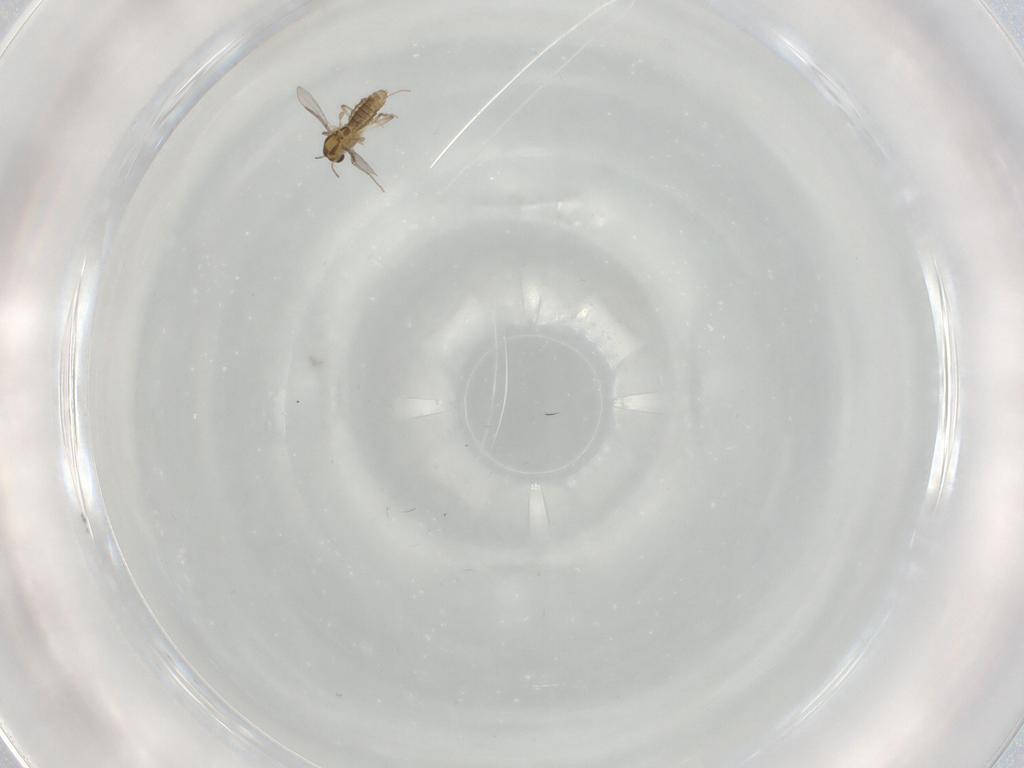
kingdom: Animalia
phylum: Arthropoda
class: Insecta
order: Diptera
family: Chironomidae
